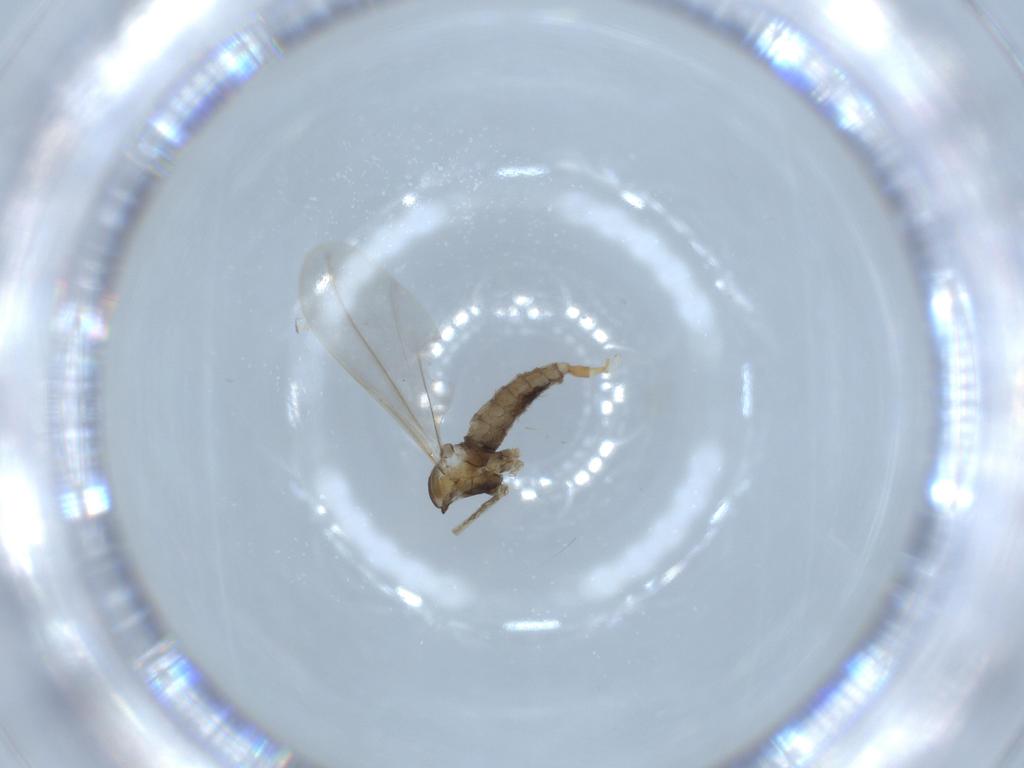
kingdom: Animalia
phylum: Arthropoda
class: Insecta
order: Diptera
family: Cecidomyiidae
